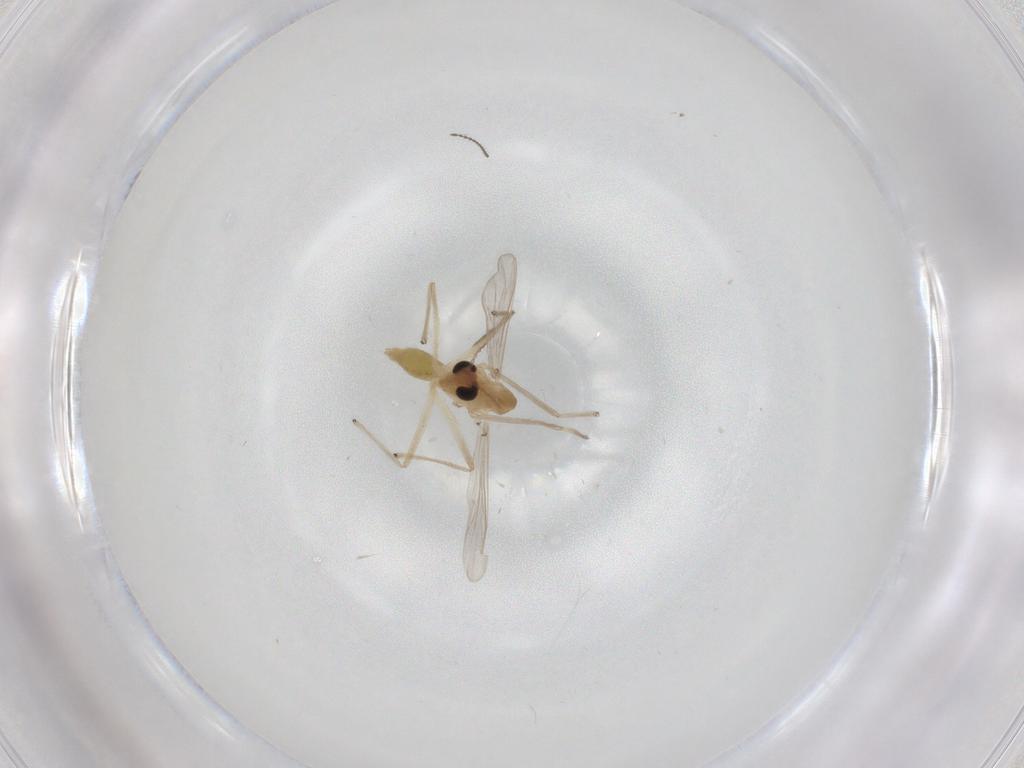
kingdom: Animalia
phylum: Arthropoda
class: Insecta
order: Diptera
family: Chironomidae
